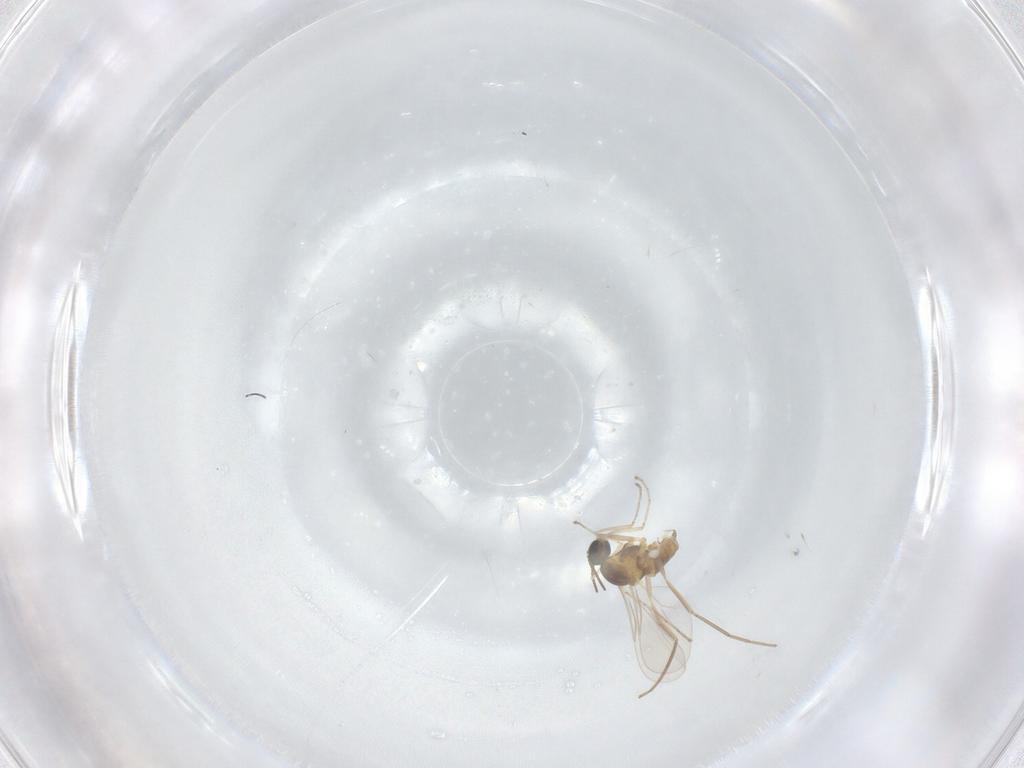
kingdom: Animalia
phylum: Arthropoda
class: Insecta
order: Diptera
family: Cecidomyiidae
